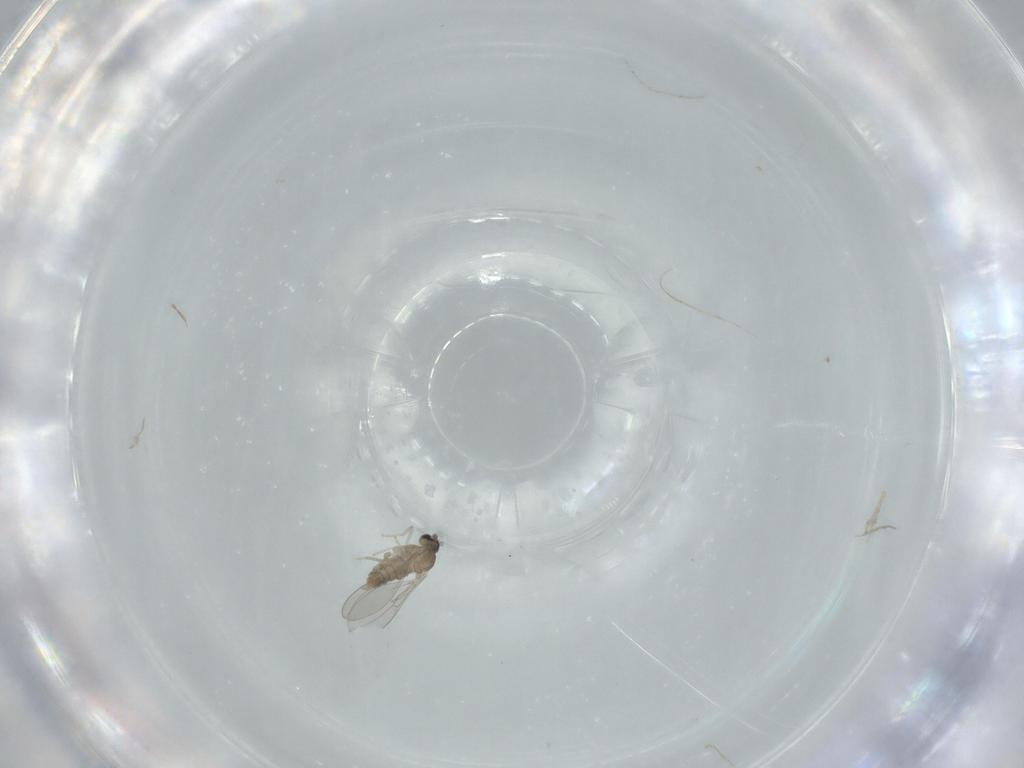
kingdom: Animalia
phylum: Arthropoda
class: Insecta
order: Diptera
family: Cecidomyiidae
